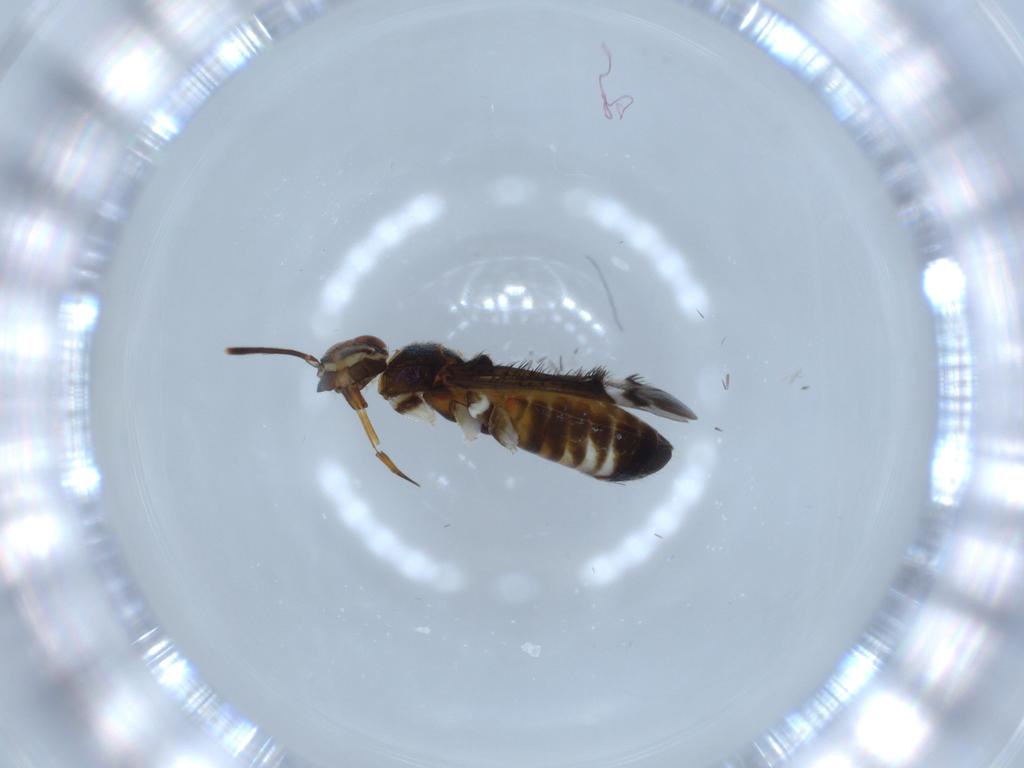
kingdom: Animalia
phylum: Arthropoda
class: Insecta
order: Hemiptera
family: Miridae
